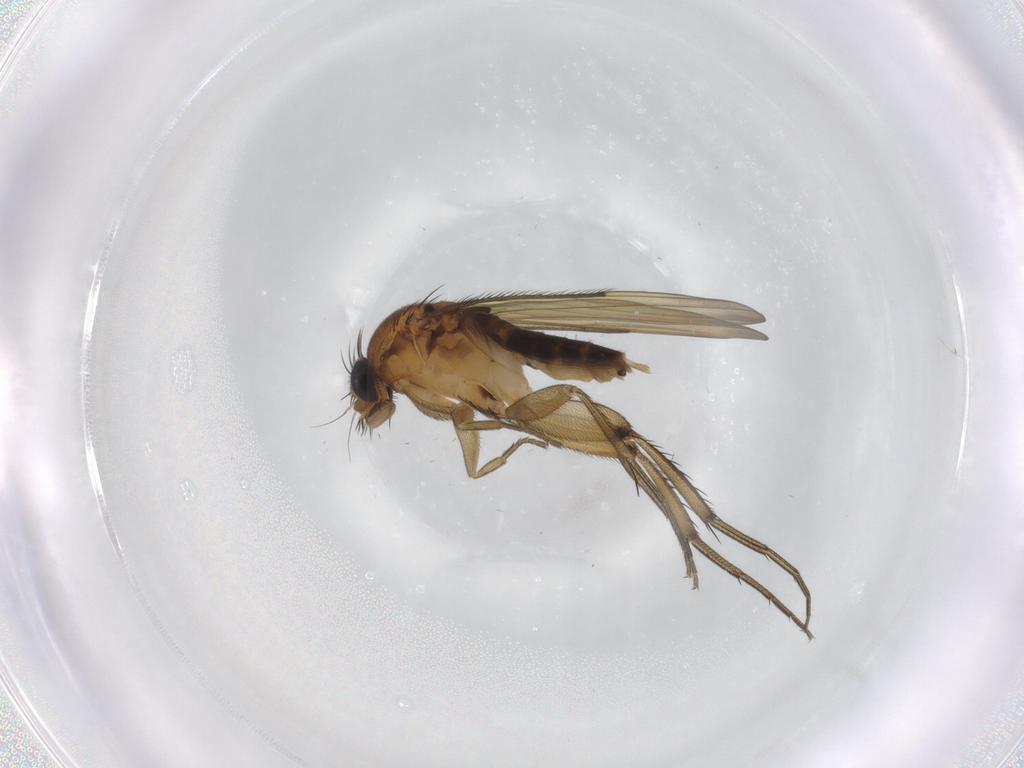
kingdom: Animalia
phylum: Arthropoda
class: Insecta
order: Diptera
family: Phoridae
